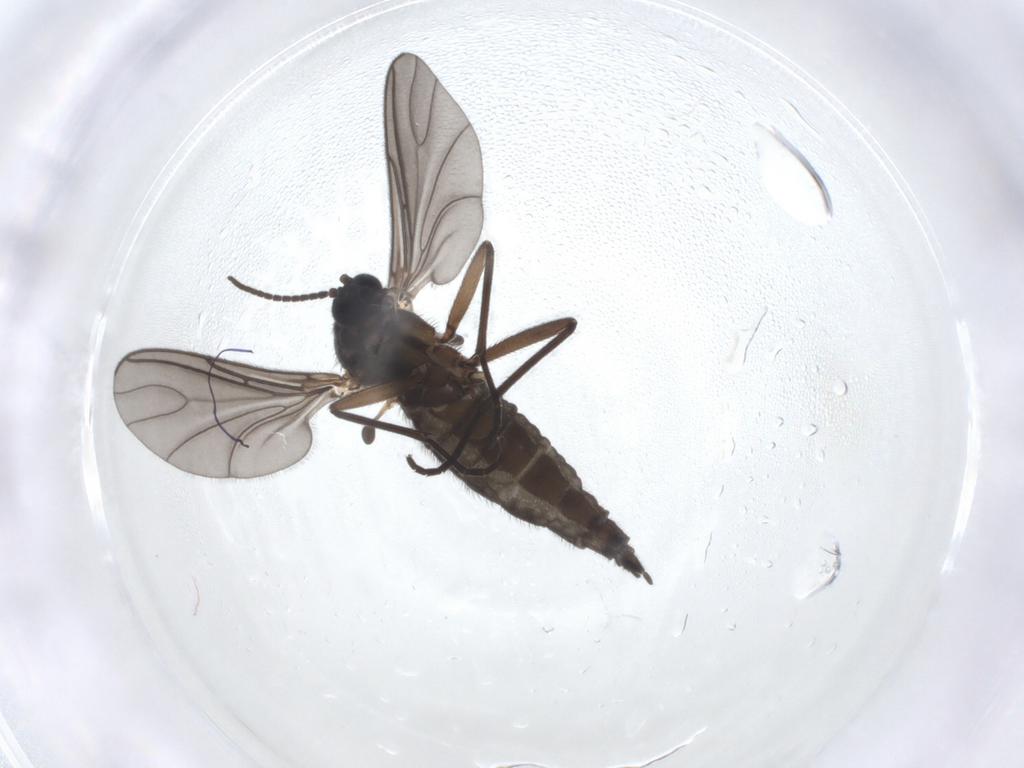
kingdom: Animalia
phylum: Arthropoda
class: Insecta
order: Diptera
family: Sciaridae
